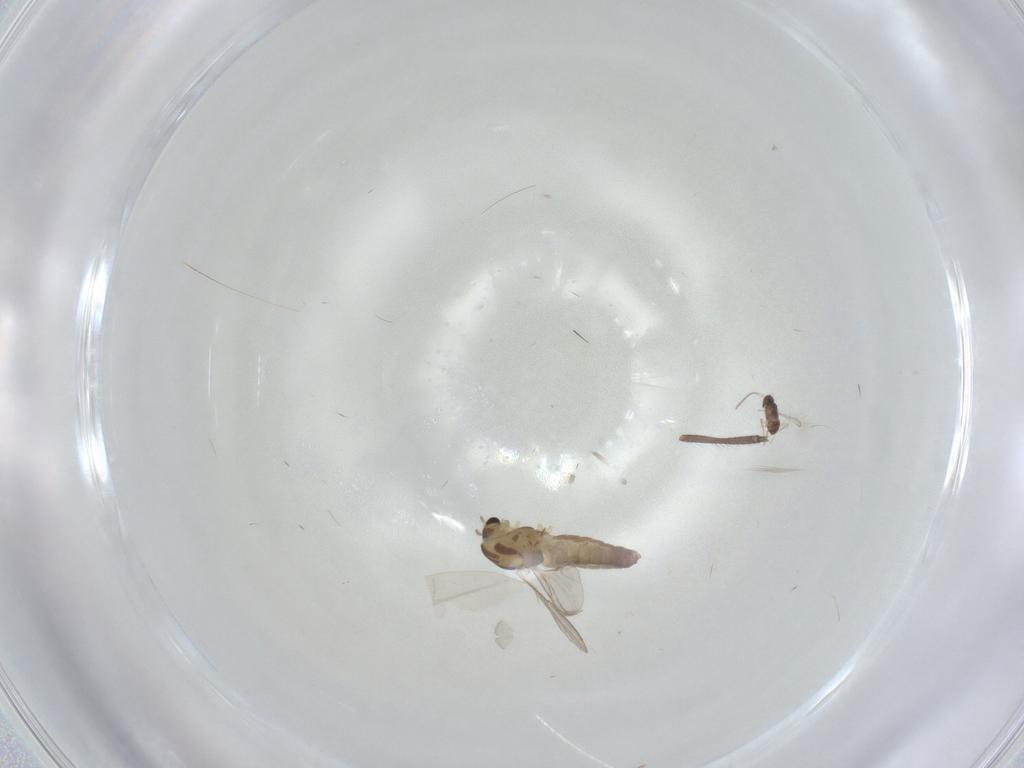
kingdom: Animalia
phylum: Arthropoda
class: Insecta
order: Diptera
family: Chironomidae
